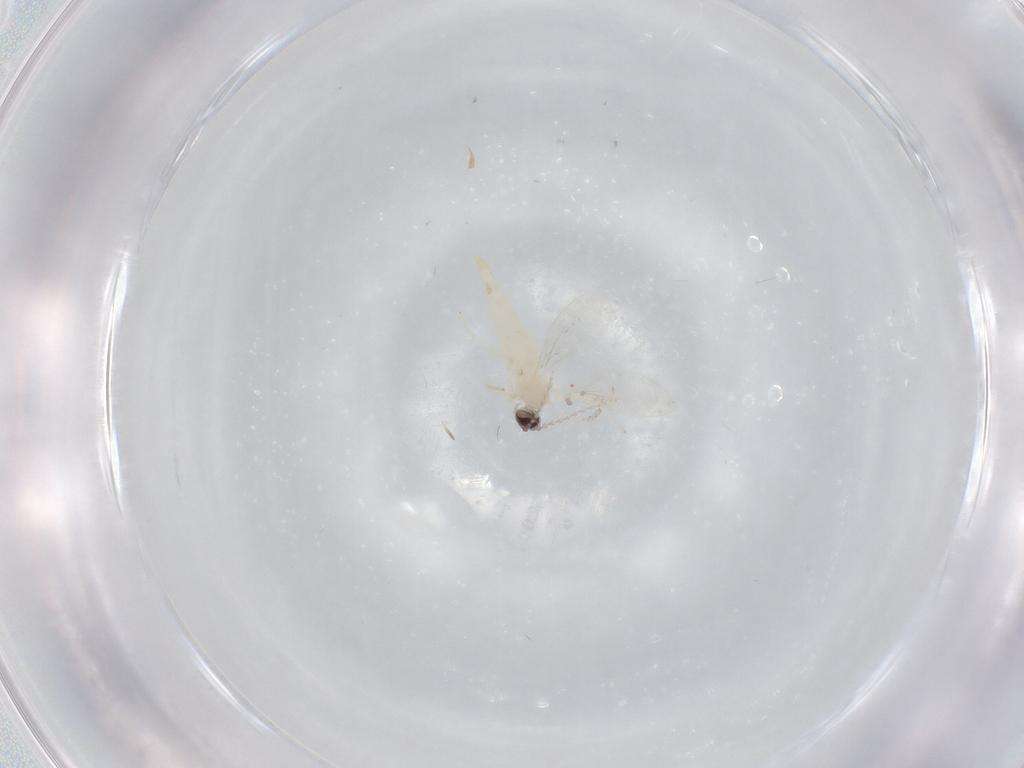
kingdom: Animalia
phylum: Arthropoda
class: Insecta
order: Diptera
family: Cecidomyiidae
